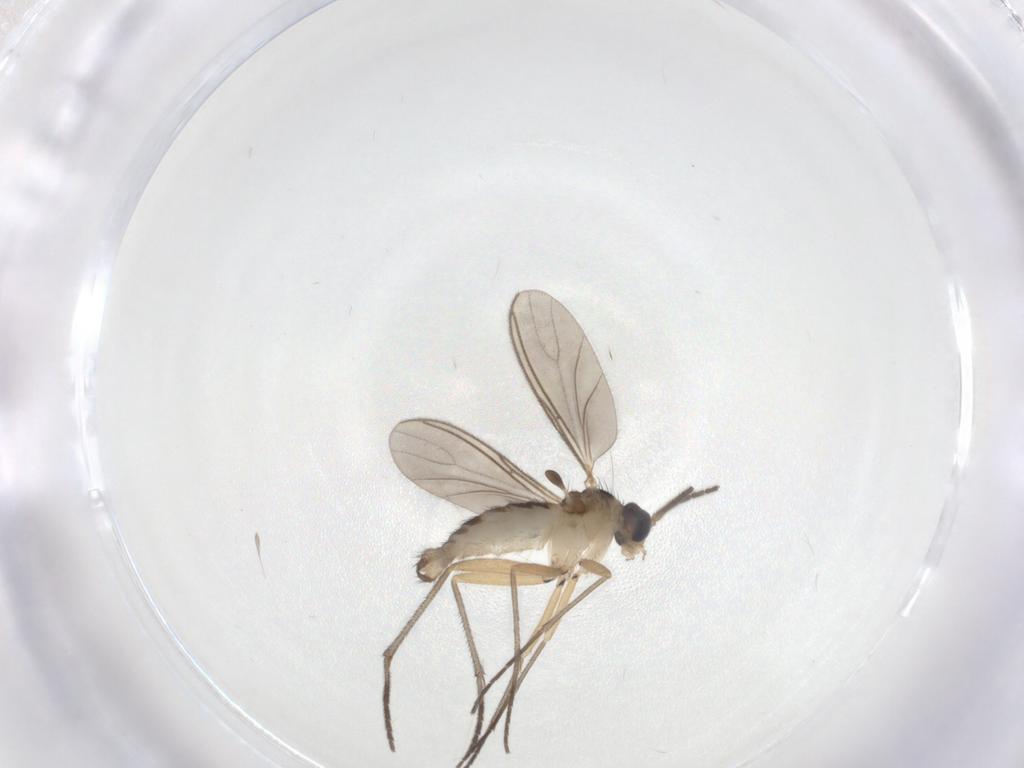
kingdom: Animalia
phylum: Arthropoda
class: Insecta
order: Diptera
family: Sciaridae
